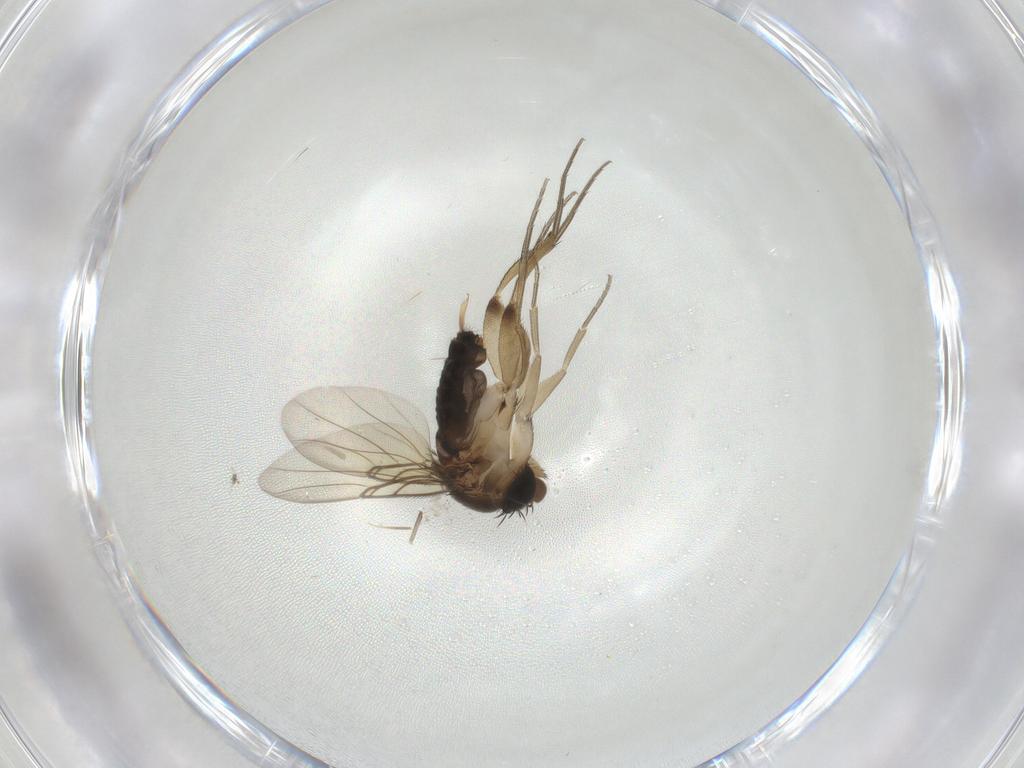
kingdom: Animalia
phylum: Arthropoda
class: Insecta
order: Diptera
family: Phoridae
